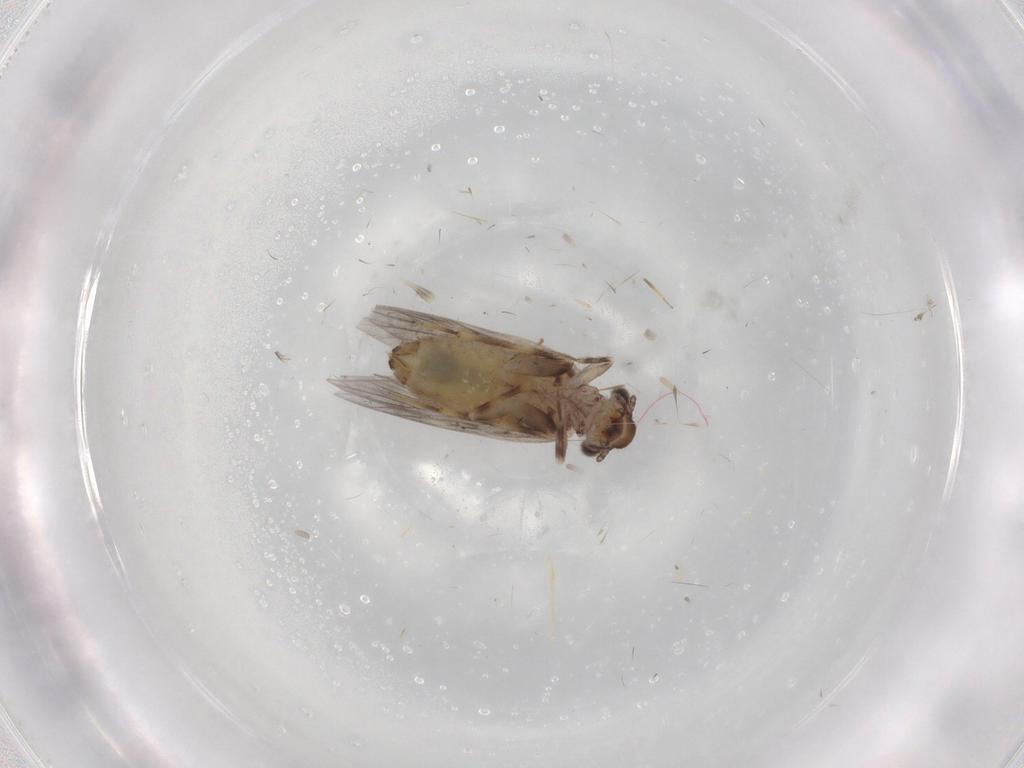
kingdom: Animalia
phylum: Arthropoda
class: Insecta
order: Psocodea
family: Lepidopsocidae
